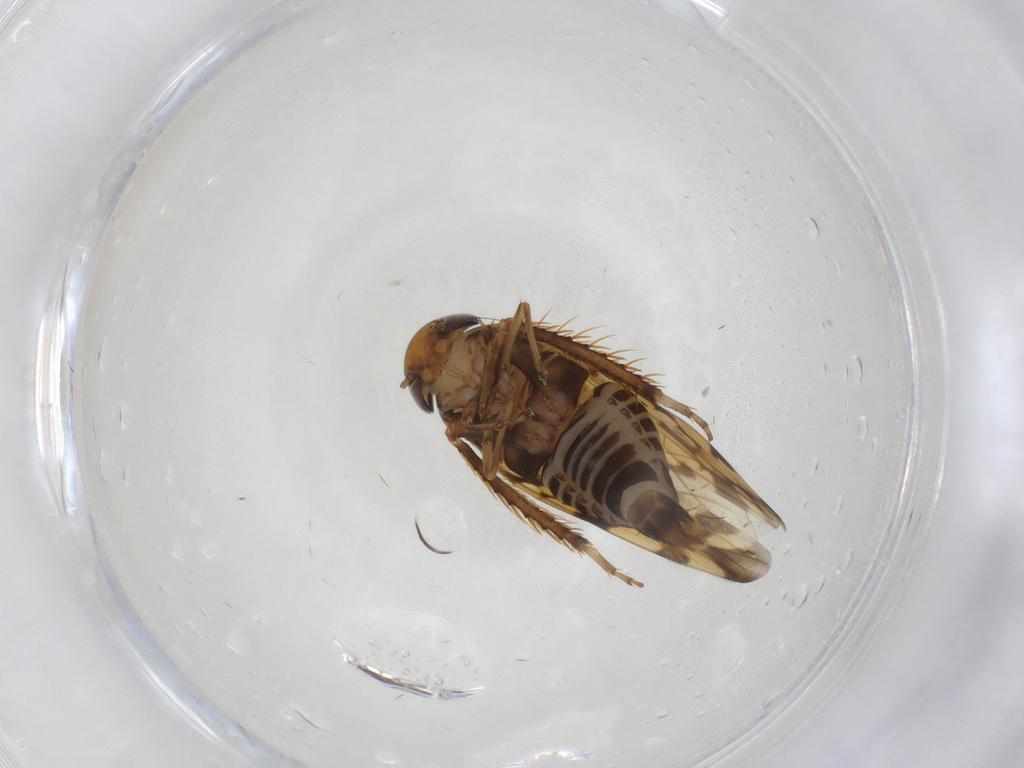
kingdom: Animalia
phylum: Arthropoda
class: Insecta
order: Hemiptera
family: Cicadellidae
